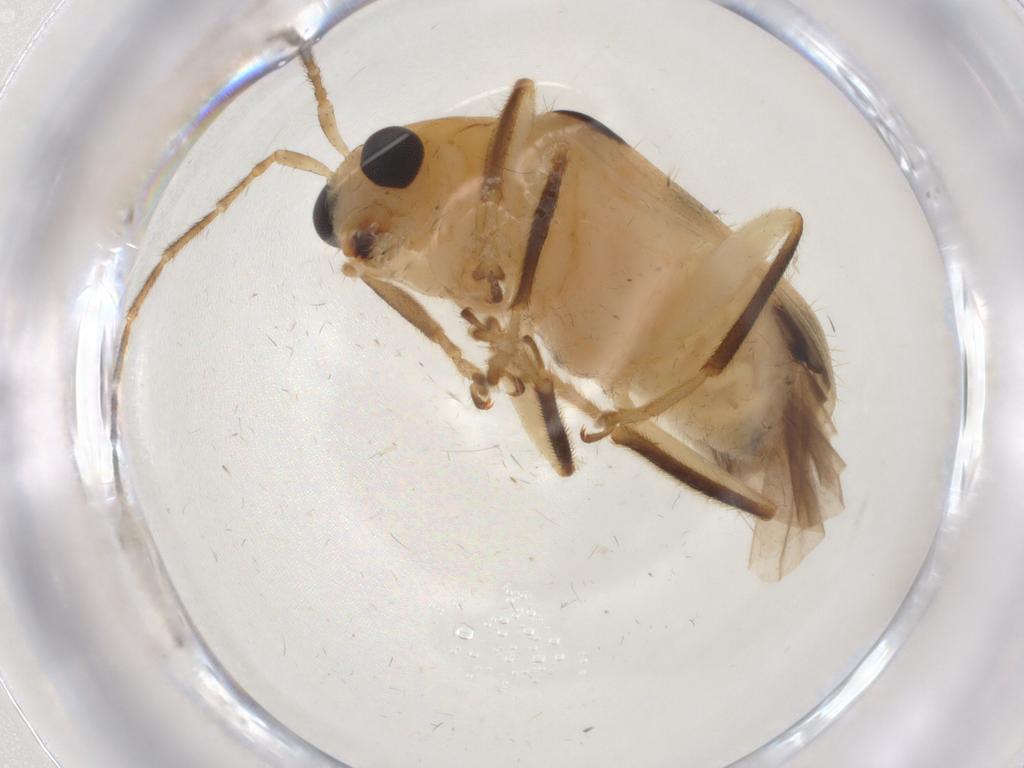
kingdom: Animalia
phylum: Arthropoda
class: Insecta
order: Coleoptera
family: Chrysomelidae
